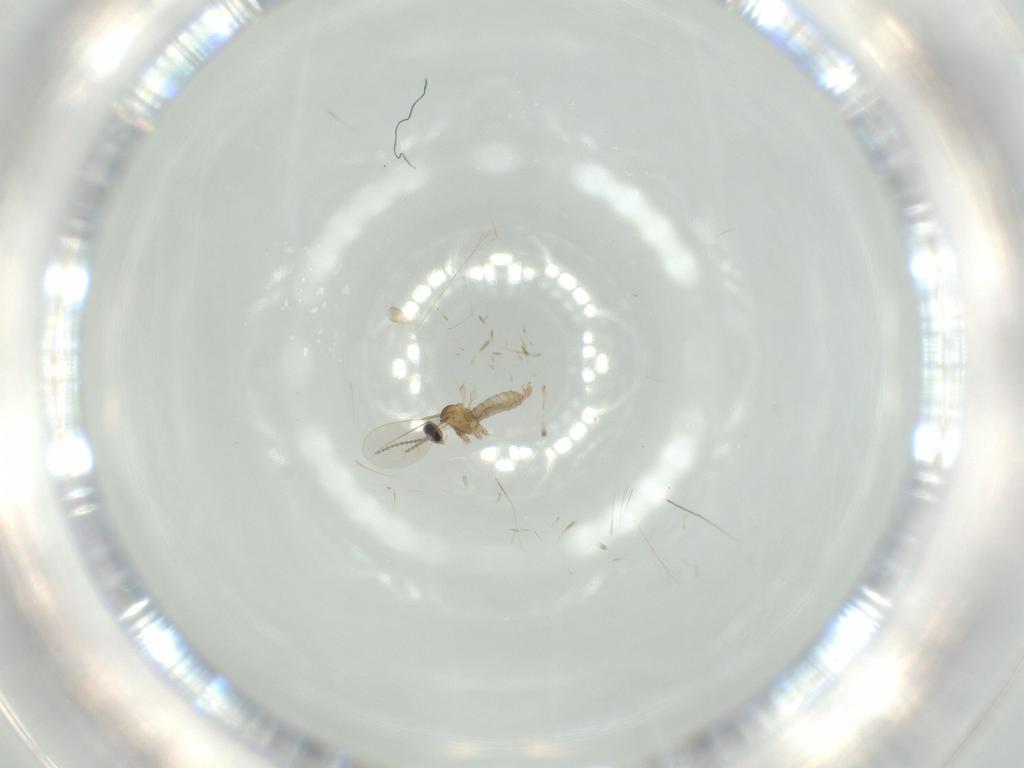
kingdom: Animalia
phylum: Arthropoda
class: Insecta
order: Diptera
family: Cecidomyiidae
